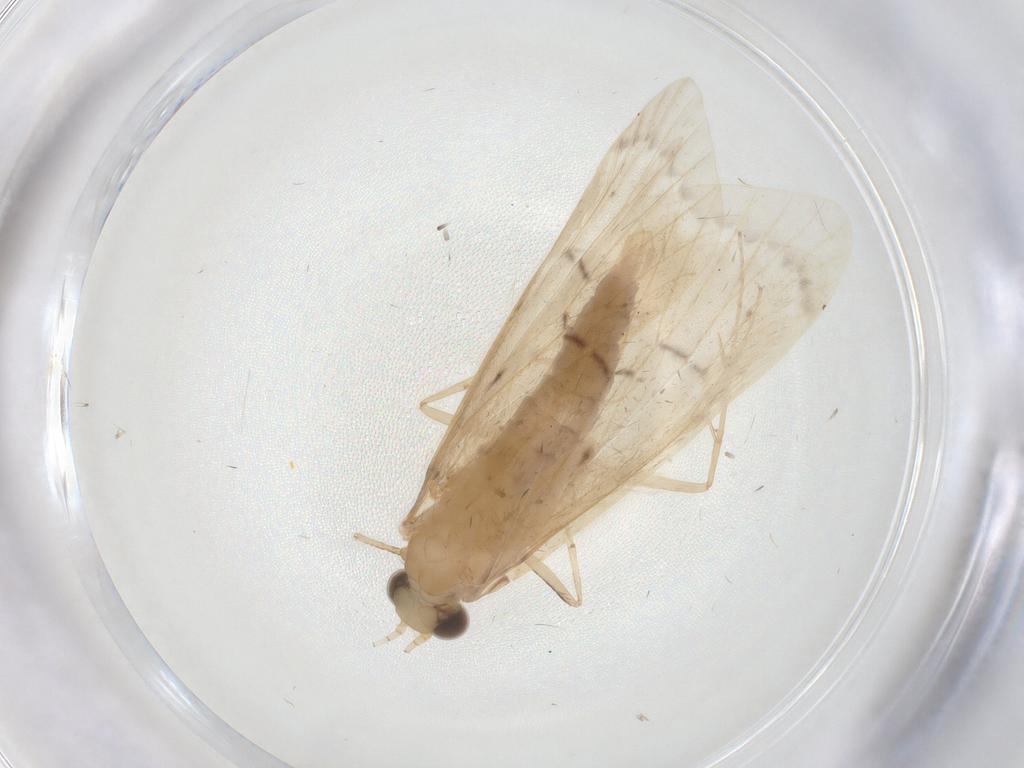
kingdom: Animalia
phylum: Arthropoda
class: Insecta
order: Trichoptera
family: Hydropsychidae
